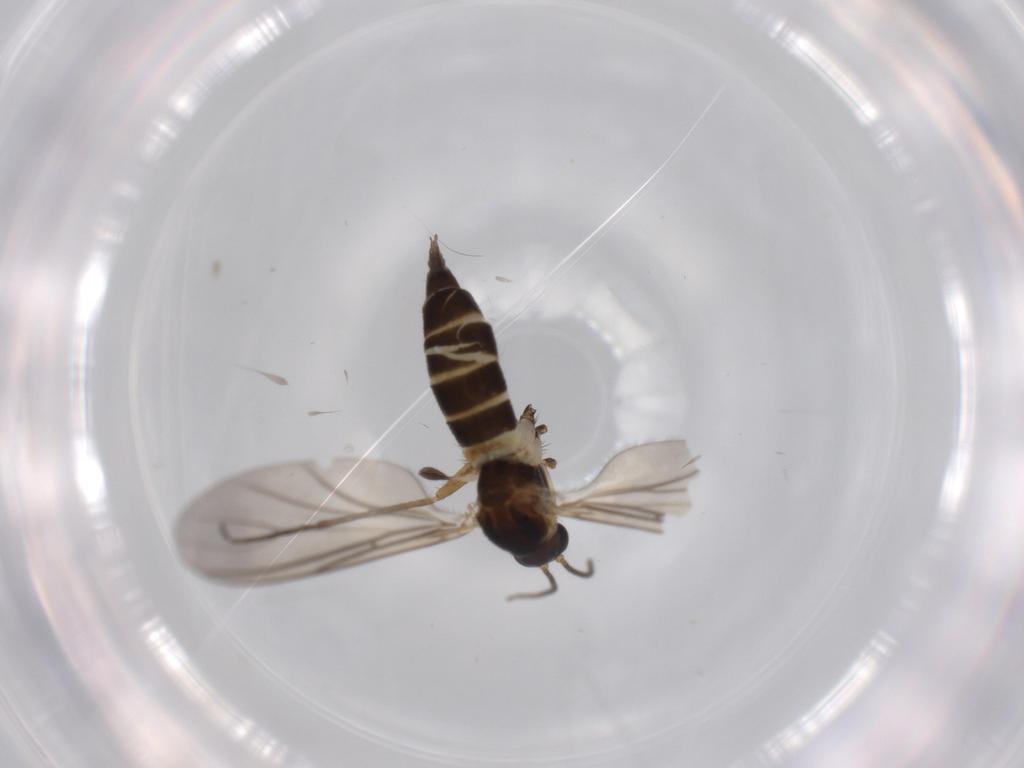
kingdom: Animalia
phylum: Arthropoda
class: Insecta
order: Diptera
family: Sciaridae
